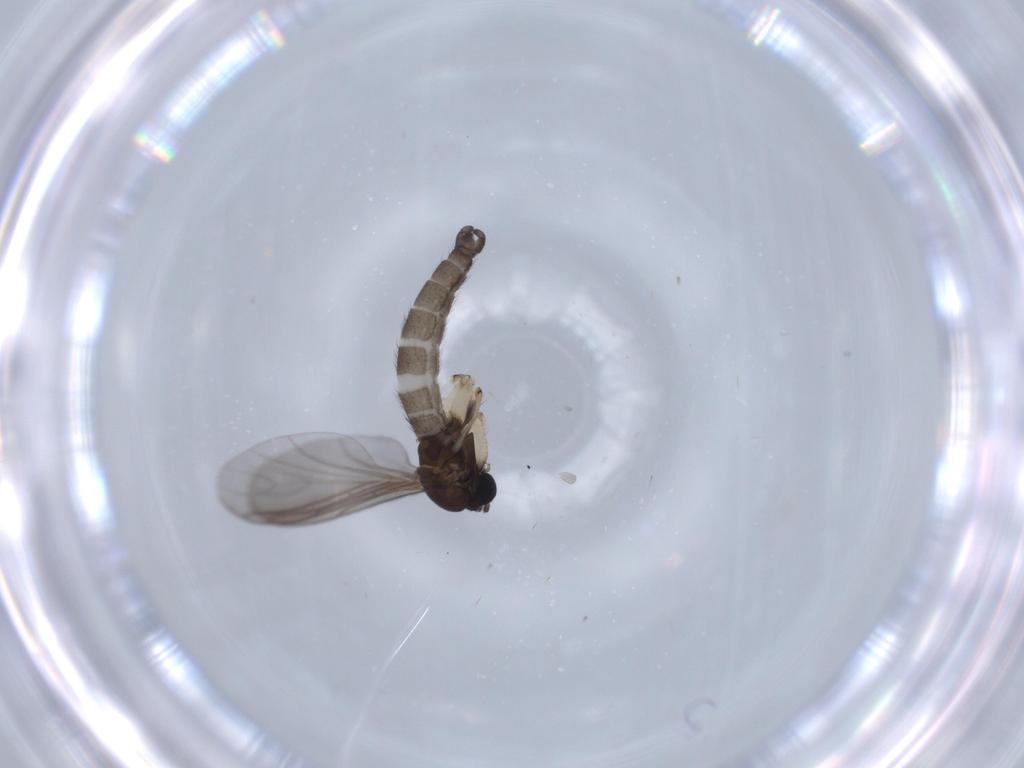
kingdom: Animalia
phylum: Arthropoda
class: Insecta
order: Diptera
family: Sciaridae
